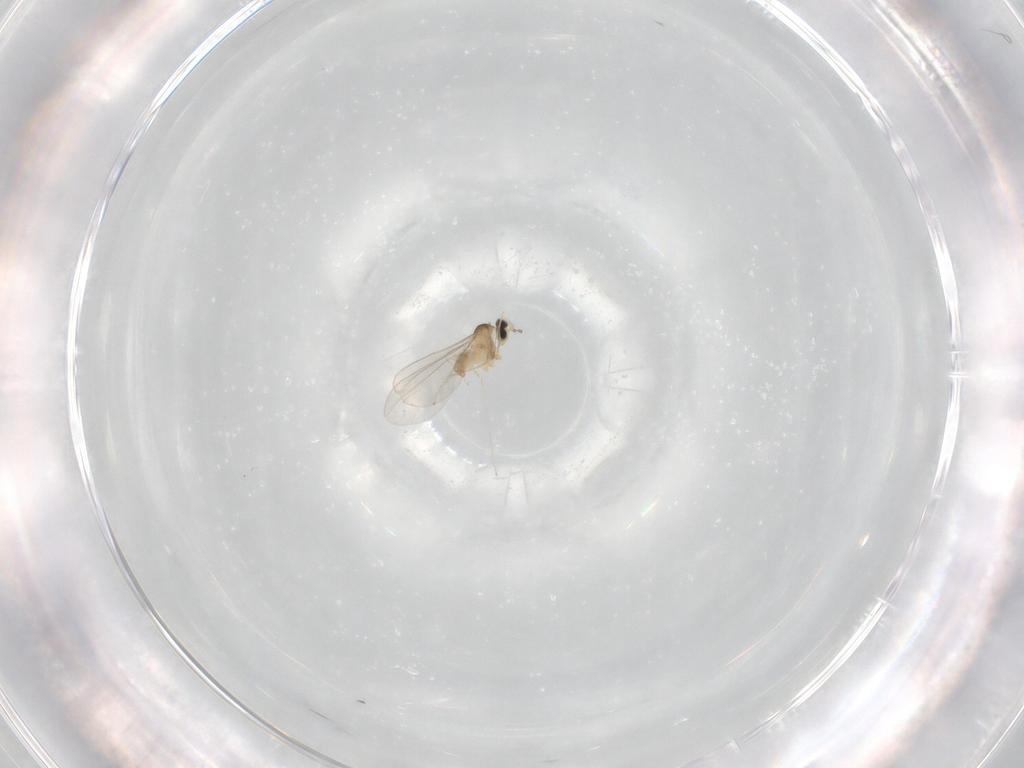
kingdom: Animalia
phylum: Arthropoda
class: Insecta
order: Diptera
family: Cecidomyiidae
